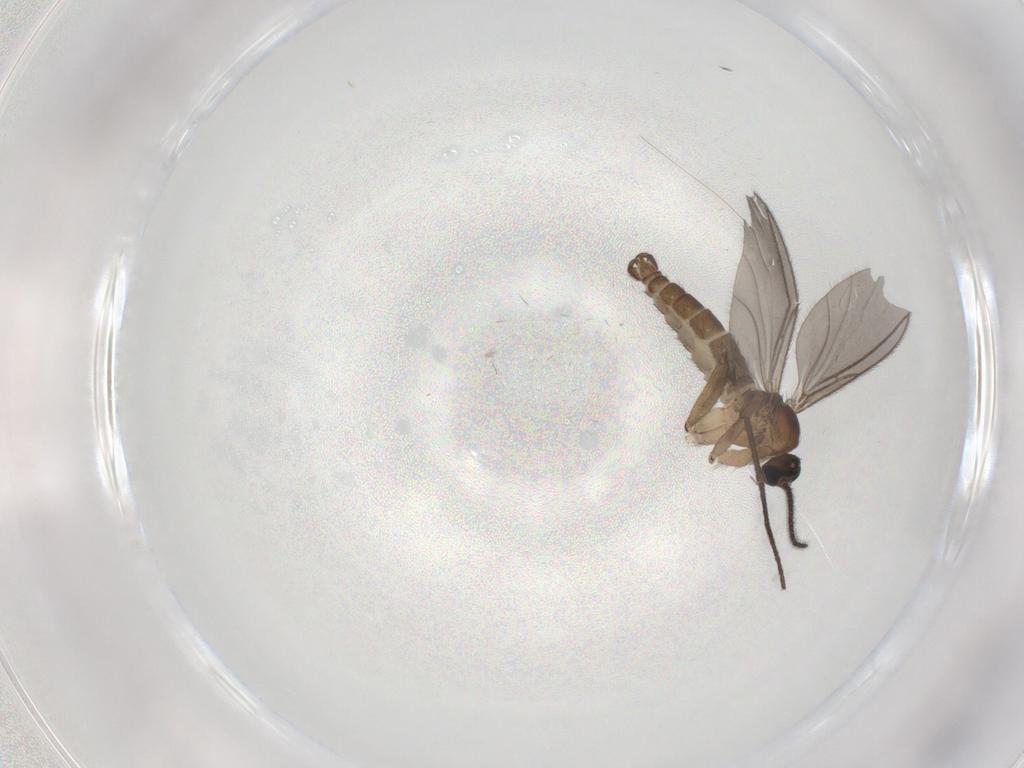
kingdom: Animalia
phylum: Arthropoda
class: Insecta
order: Diptera
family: Sciaridae
